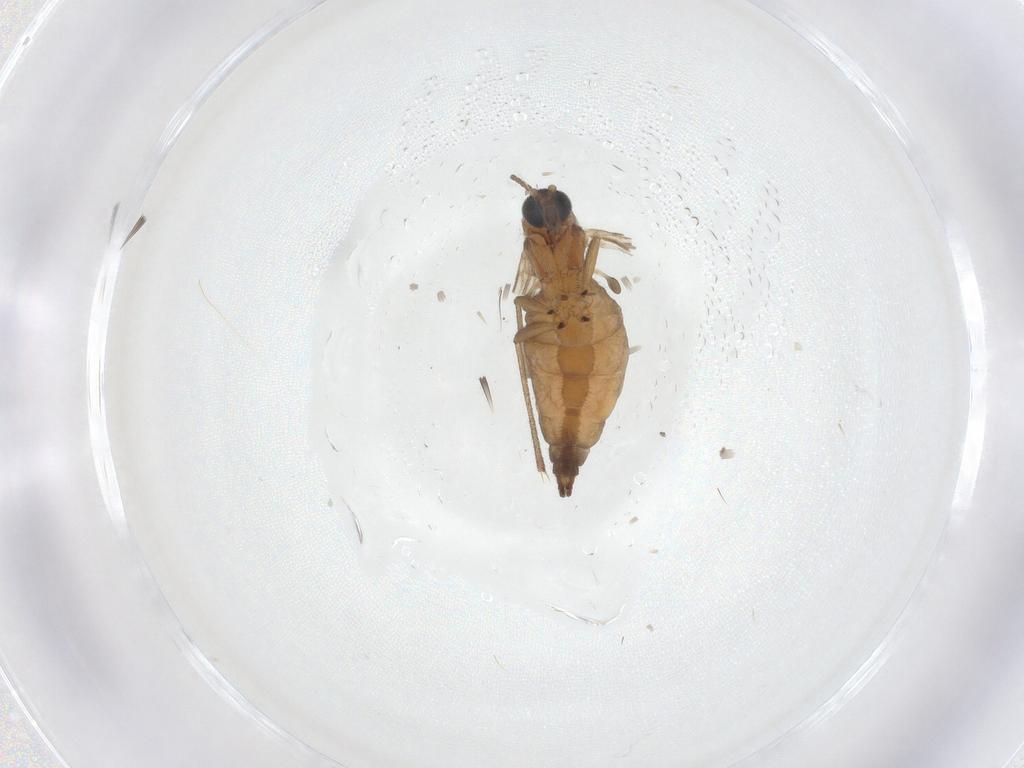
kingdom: Animalia
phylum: Arthropoda
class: Insecta
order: Diptera
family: Sciaridae
